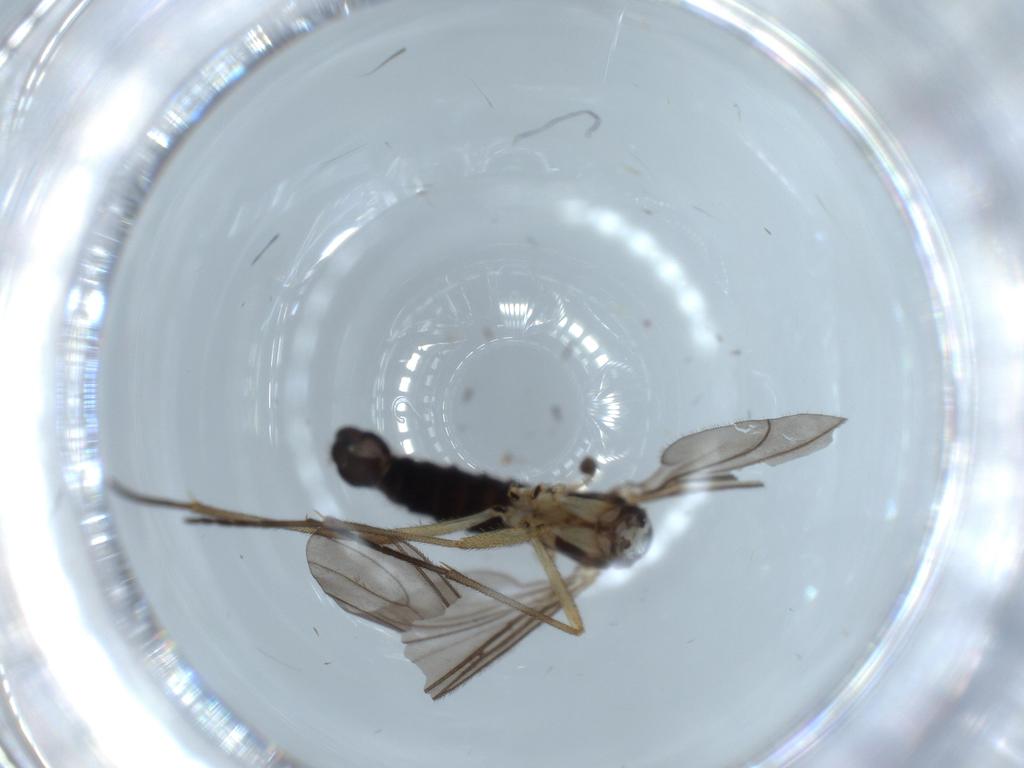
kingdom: Animalia
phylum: Arthropoda
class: Insecta
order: Diptera
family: Sciaridae
